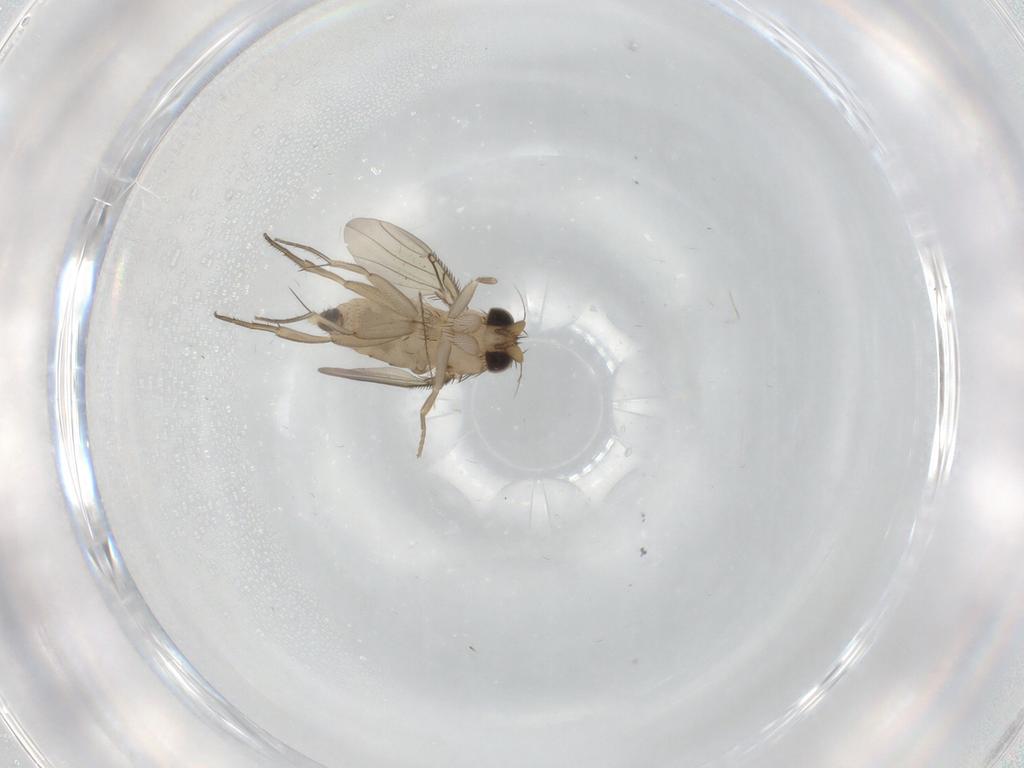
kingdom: Animalia
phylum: Arthropoda
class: Insecta
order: Diptera
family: Phoridae
